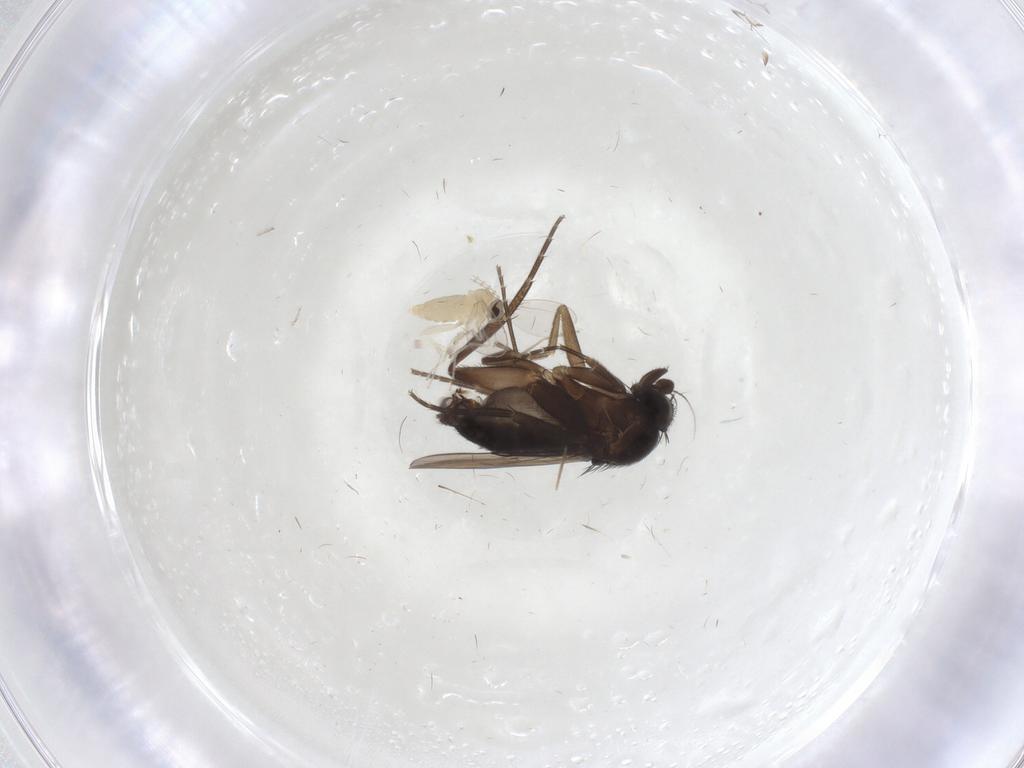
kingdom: Animalia
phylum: Arthropoda
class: Insecta
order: Diptera
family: Phoridae
